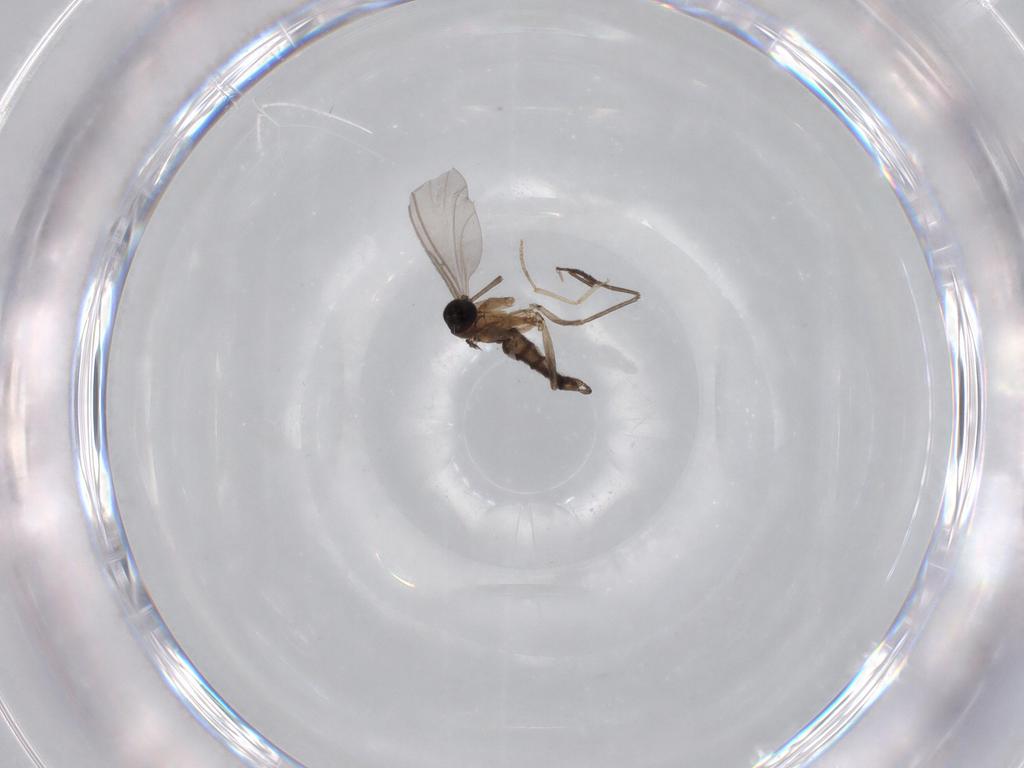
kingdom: Animalia
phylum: Arthropoda
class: Insecta
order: Diptera
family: Sciaridae
